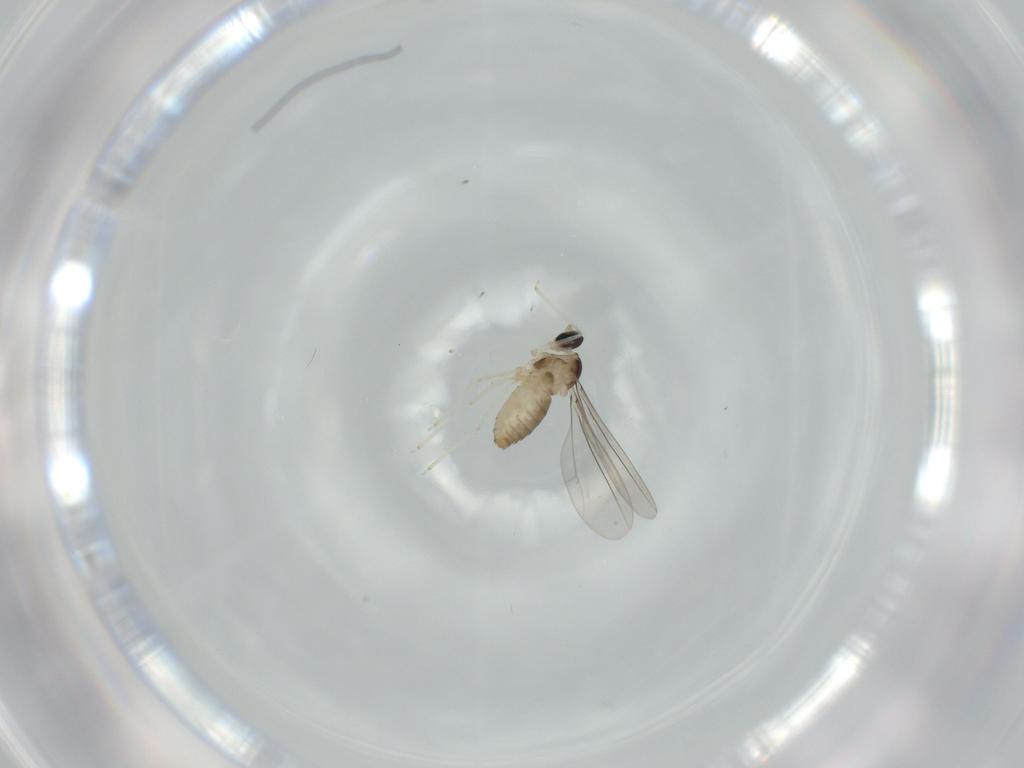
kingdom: Animalia
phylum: Arthropoda
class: Insecta
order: Diptera
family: Cecidomyiidae
